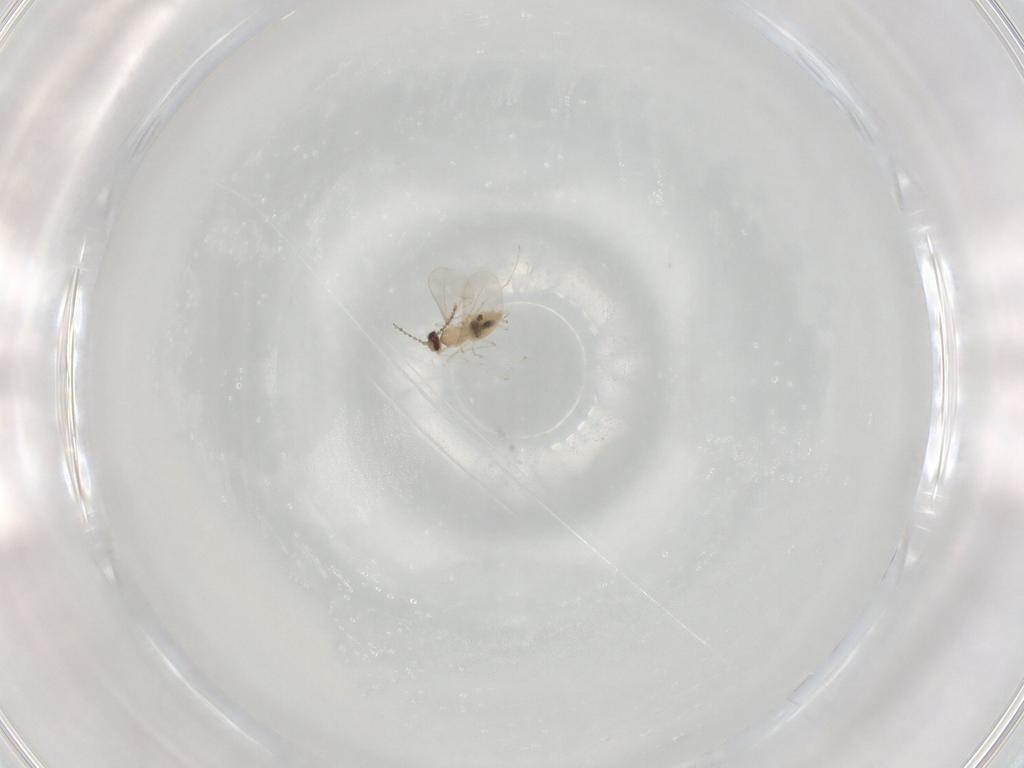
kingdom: Animalia
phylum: Arthropoda
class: Insecta
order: Diptera
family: Cecidomyiidae
